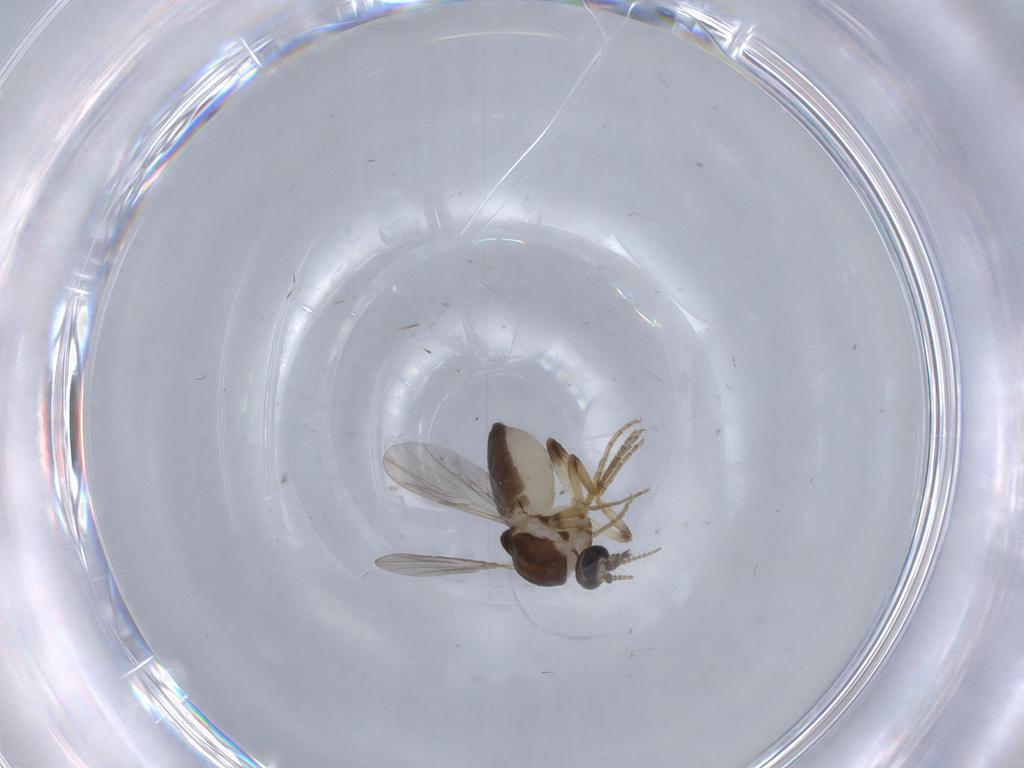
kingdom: Animalia
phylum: Arthropoda
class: Insecta
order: Diptera
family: Ceratopogonidae
